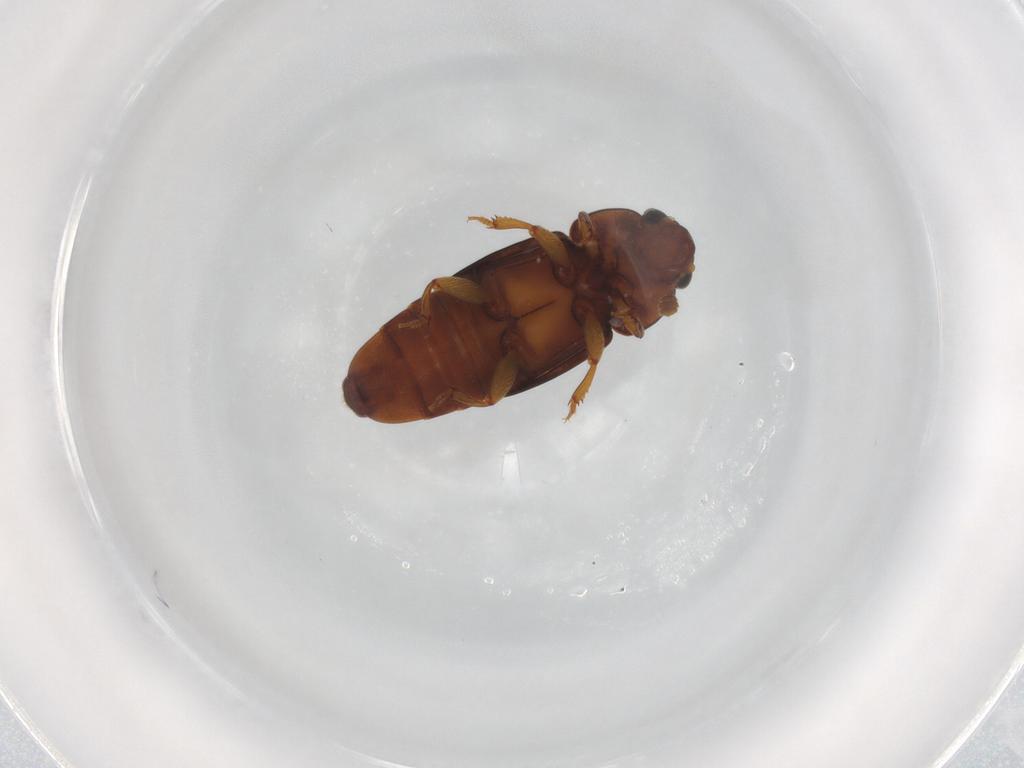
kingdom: Animalia
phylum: Arthropoda
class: Insecta
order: Coleoptera
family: Nitidulidae
